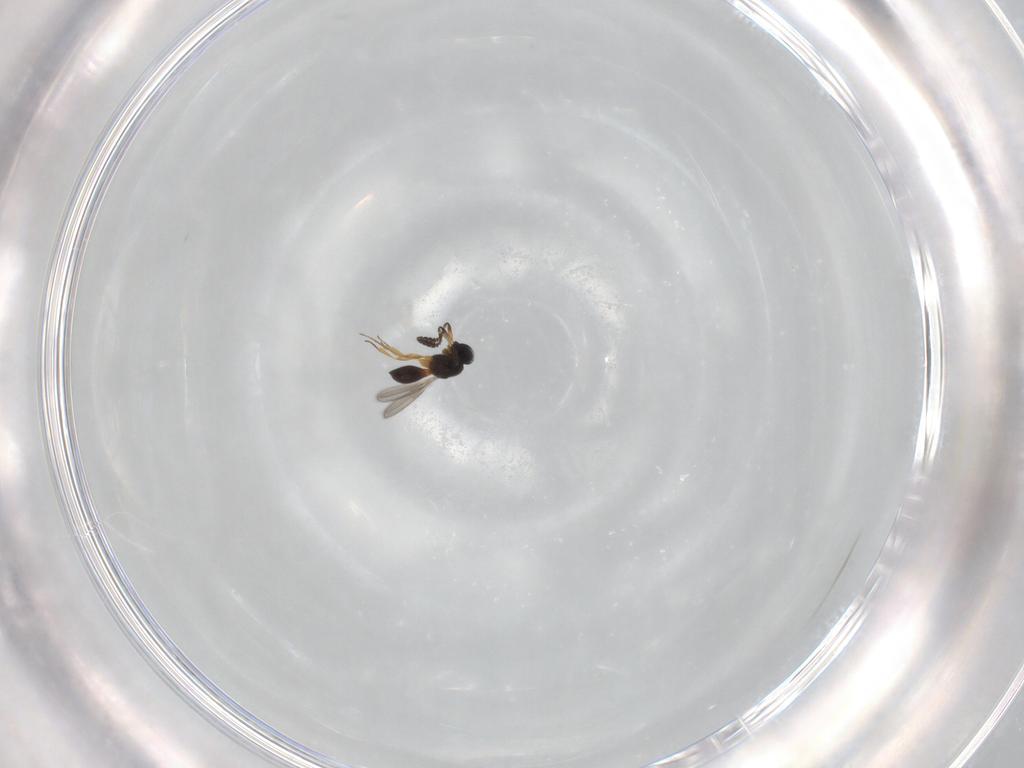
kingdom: Animalia
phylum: Arthropoda
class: Insecta
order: Hymenoptera
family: Scelionidae
